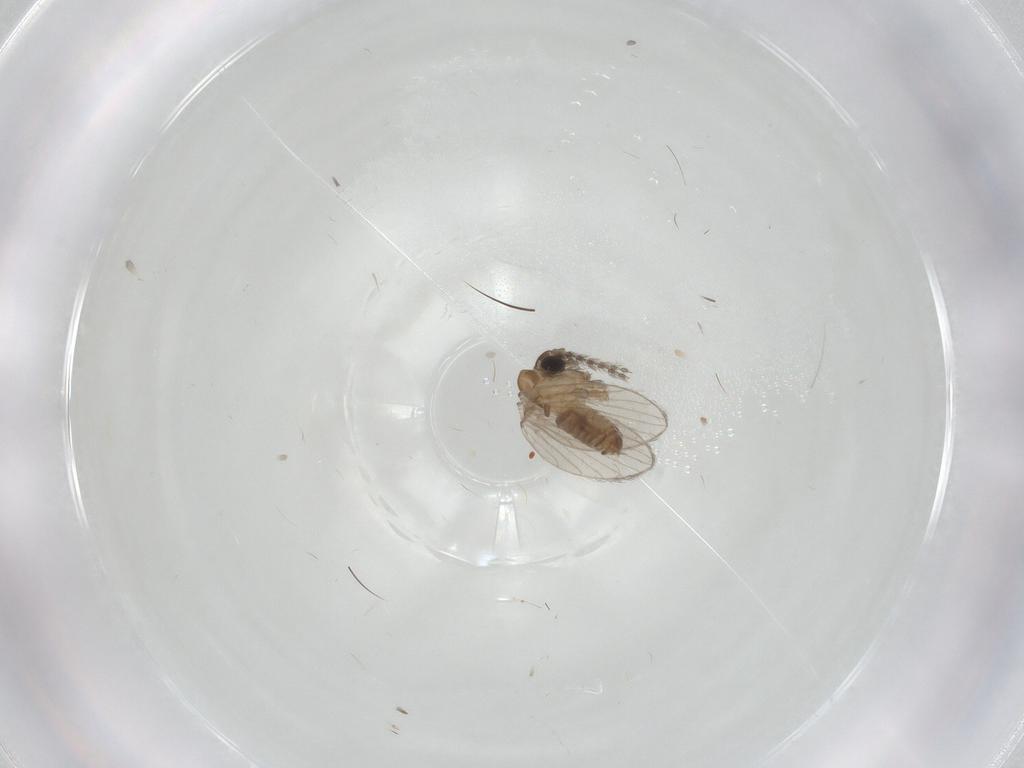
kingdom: Animalia
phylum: Arthropoda
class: Insecta
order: Diptera
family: Psychodidae
